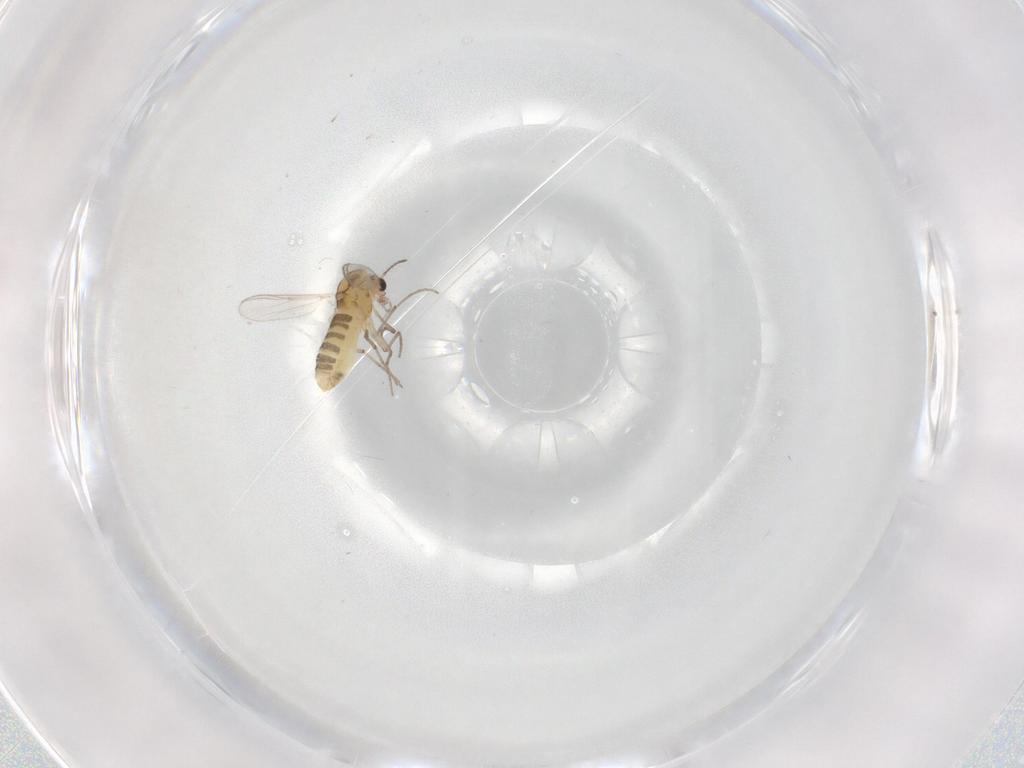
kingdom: Animalia
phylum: Arthropoda
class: Insecta
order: Diptera
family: Chironomidae
